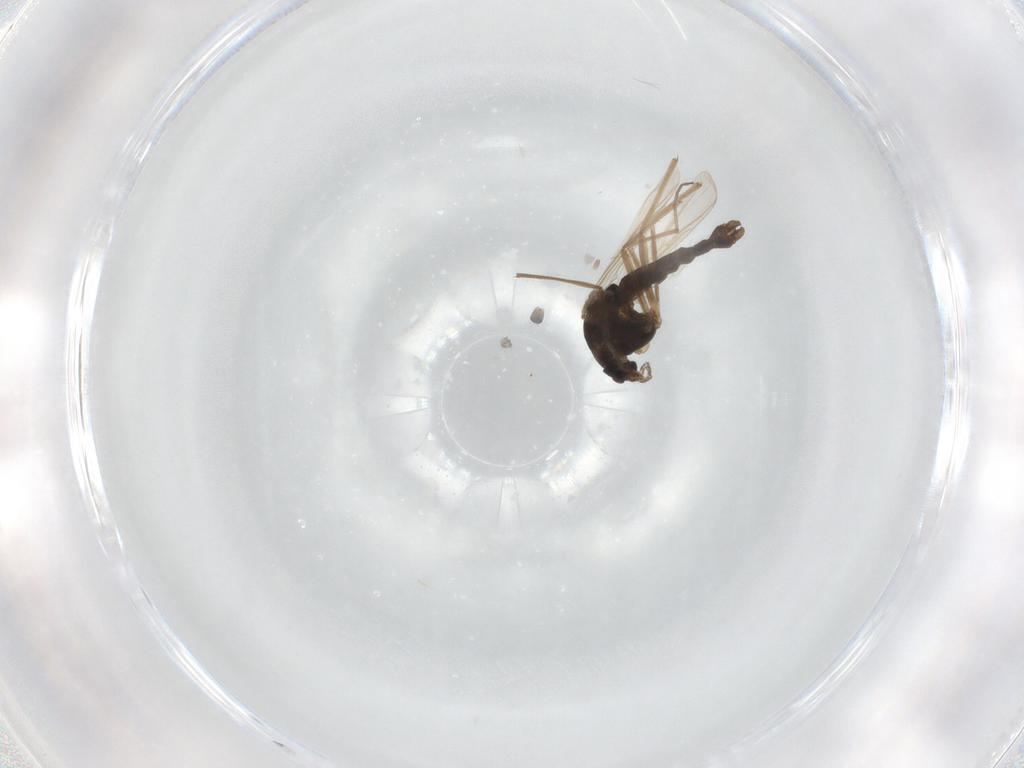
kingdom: Animalia
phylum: Arthropoda
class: Insecta
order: Diptera
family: Chironomidae
